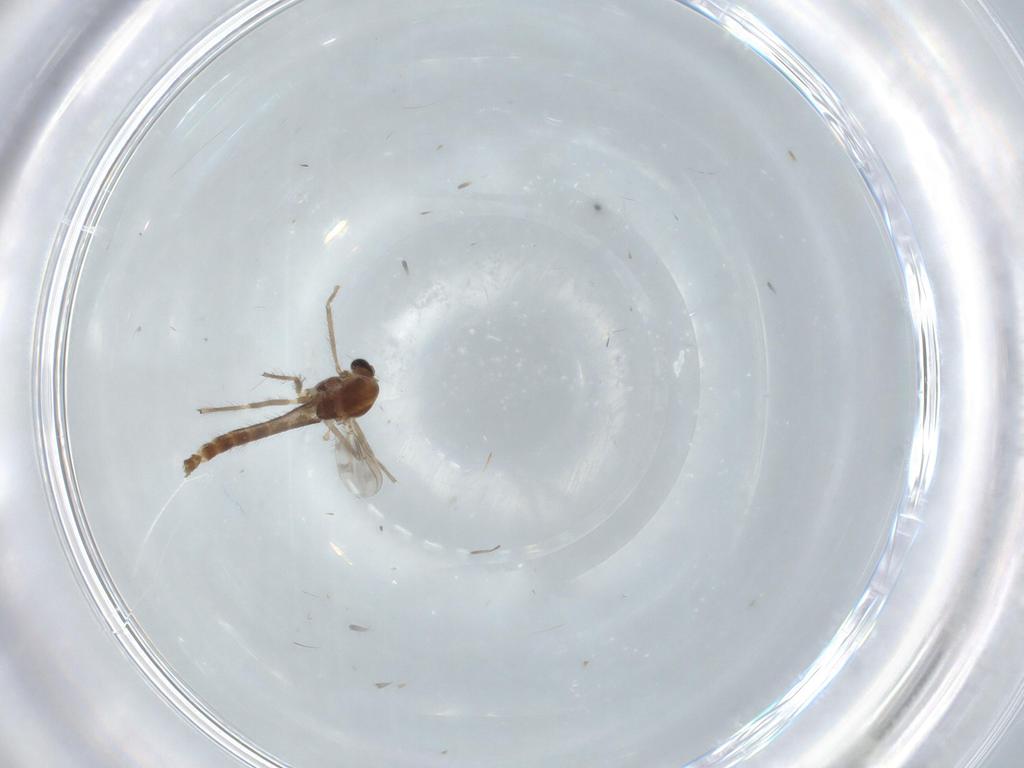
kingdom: Animalia
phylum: Arthropoda
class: Insecta
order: Diptera
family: Chironomidae
